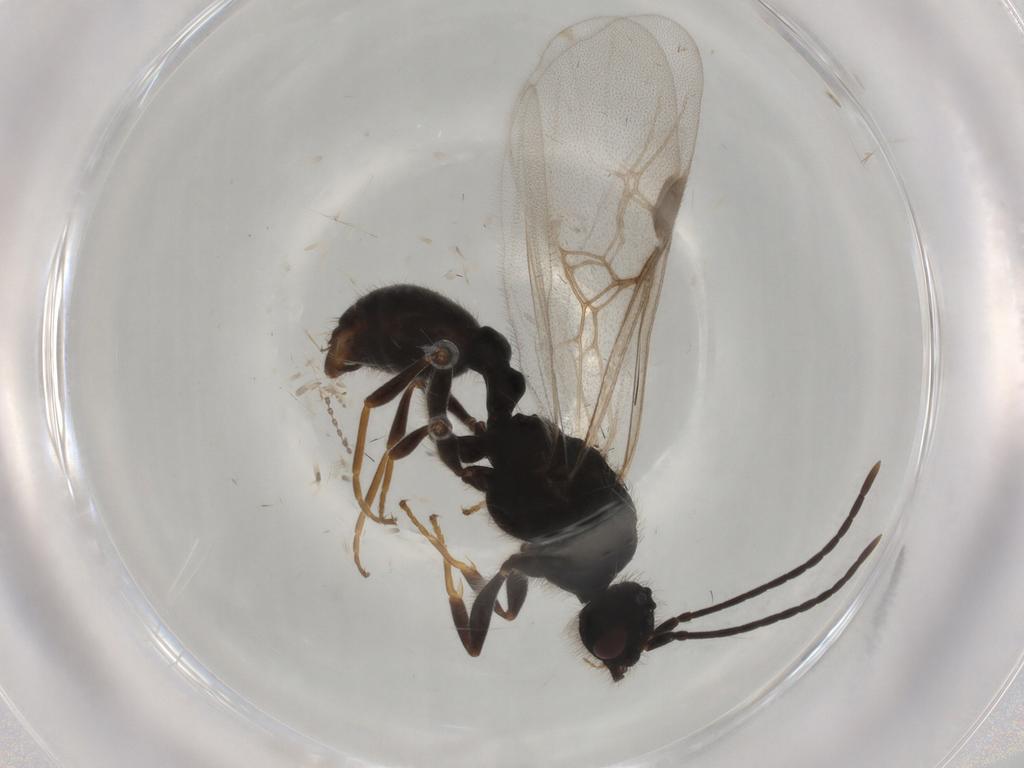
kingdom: Animalia
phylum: Arthropoda
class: Insecta
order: Hymenoptera
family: Formicidae
